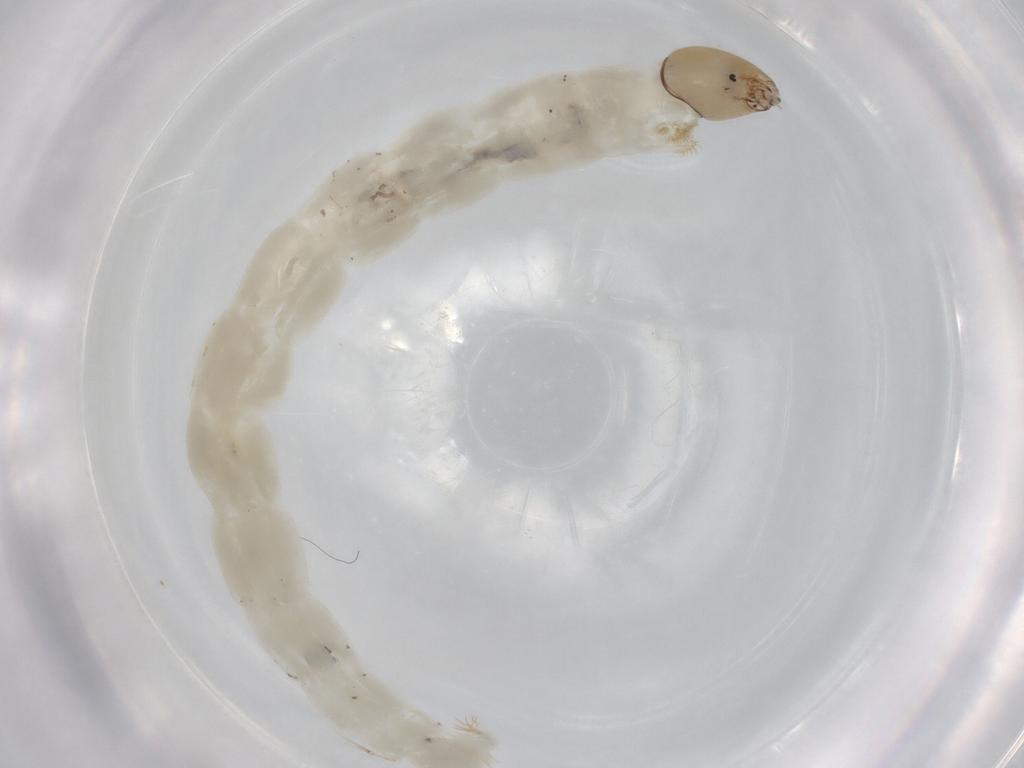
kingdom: Animalia
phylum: Arthropoda
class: Insecta
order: Diptera
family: Chironomidae
